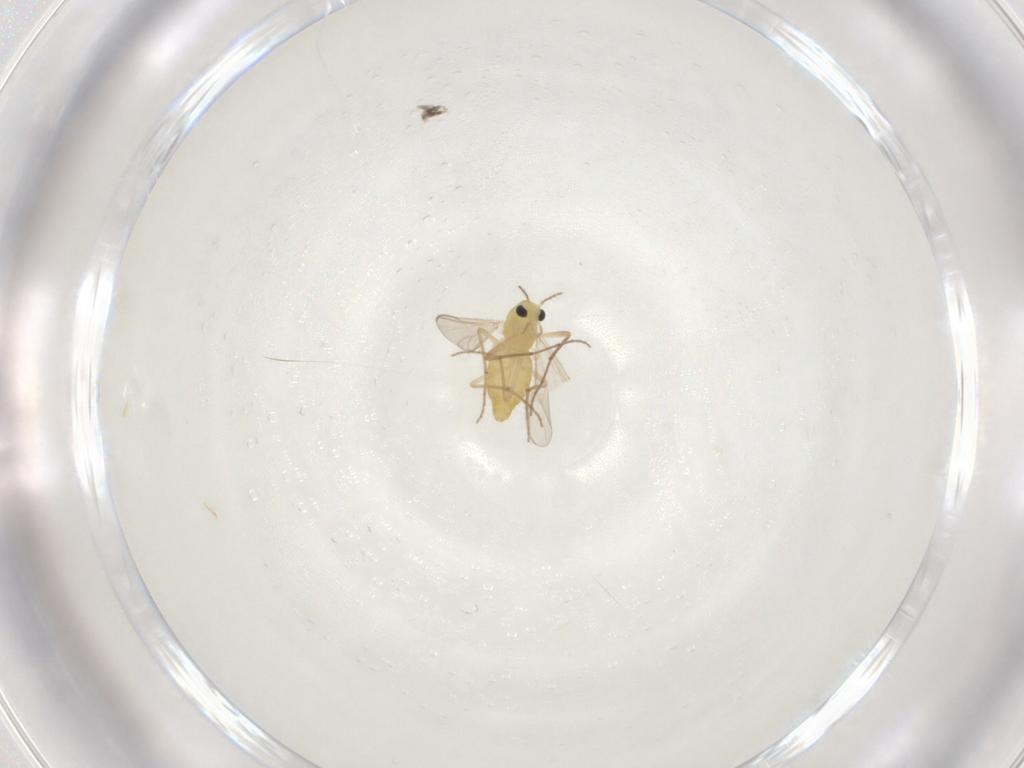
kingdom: Animalia
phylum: Arthropoda
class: Insecta
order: Diptera
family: Chironomidae
